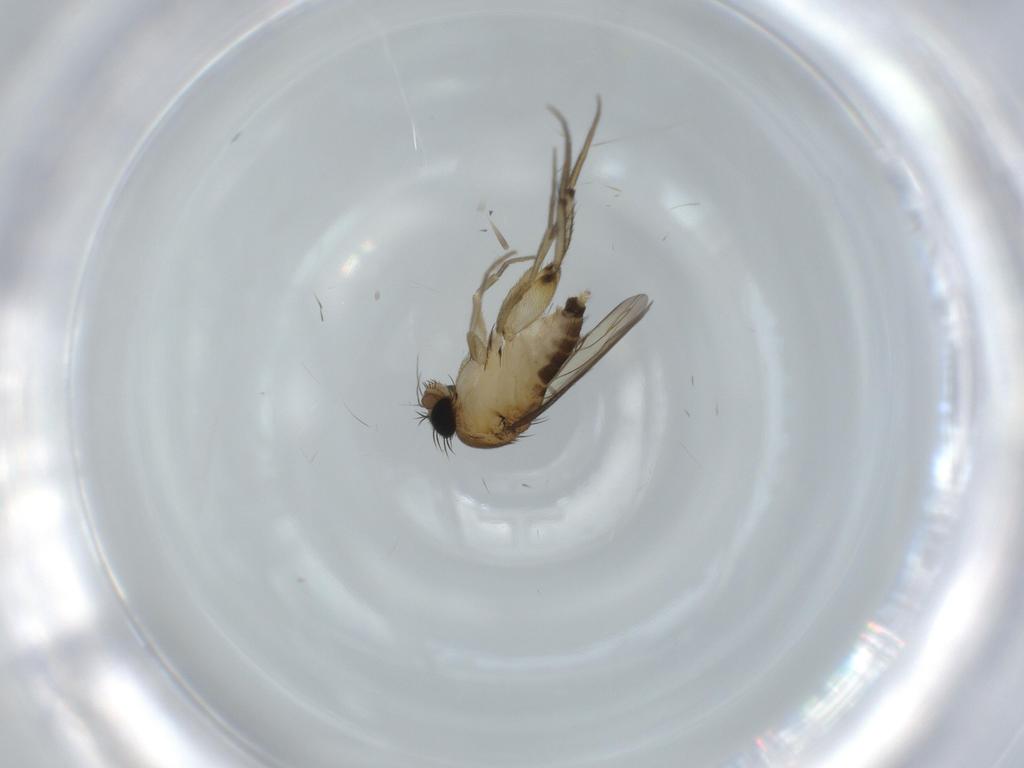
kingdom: Animalia
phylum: Arthropoda
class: Insecta
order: Diptera
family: Phoridae
